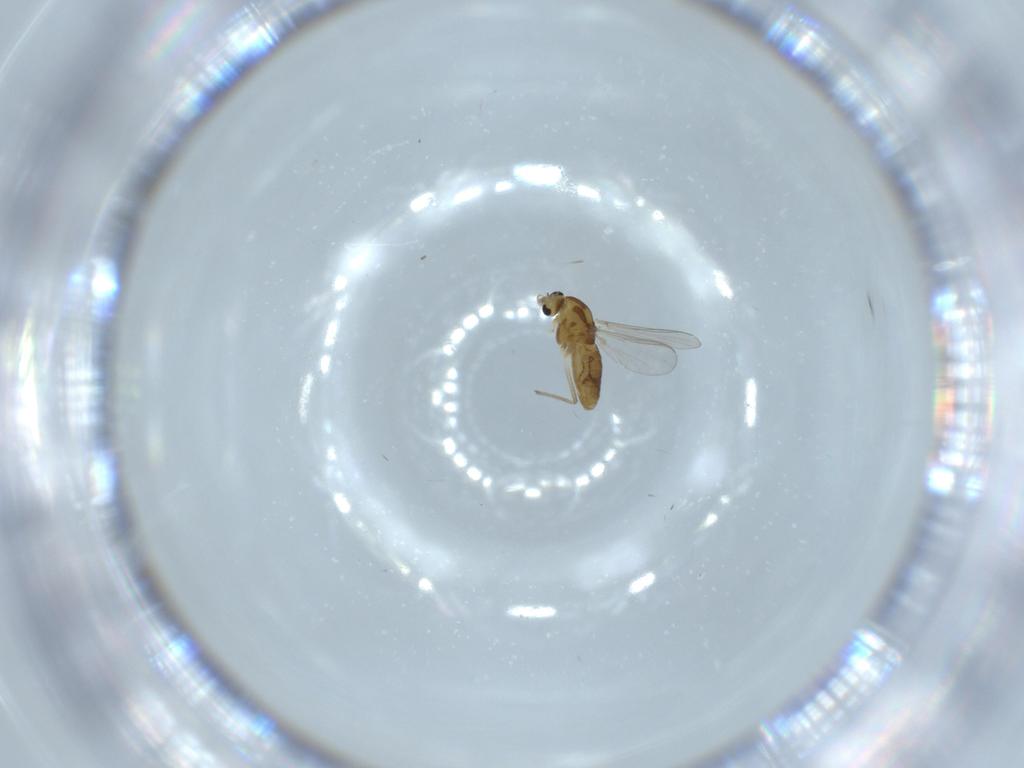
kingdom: Animalia
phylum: Arthropoda
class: Insecta
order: Diptera
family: Chironomidae
